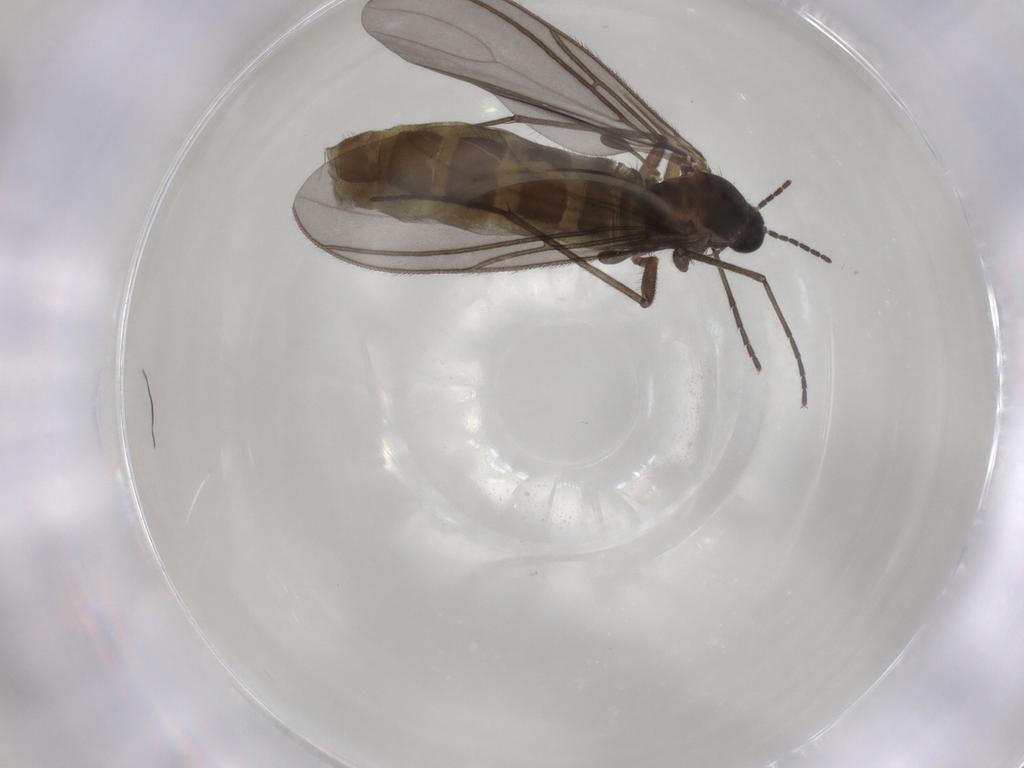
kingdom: Animalia
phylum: Arthropoda
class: Insecta
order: Diptera
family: Sciaridae
